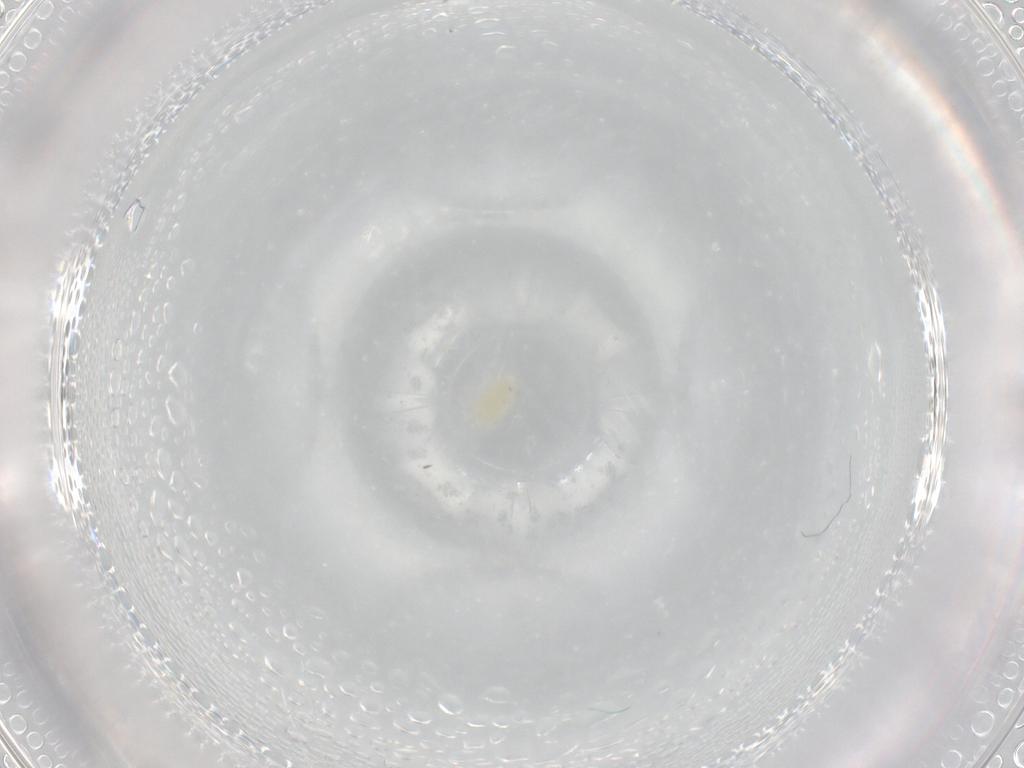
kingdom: Animalia
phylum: Arthropoda
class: Arachnida
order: Trombidiformes
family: Eupodidae
